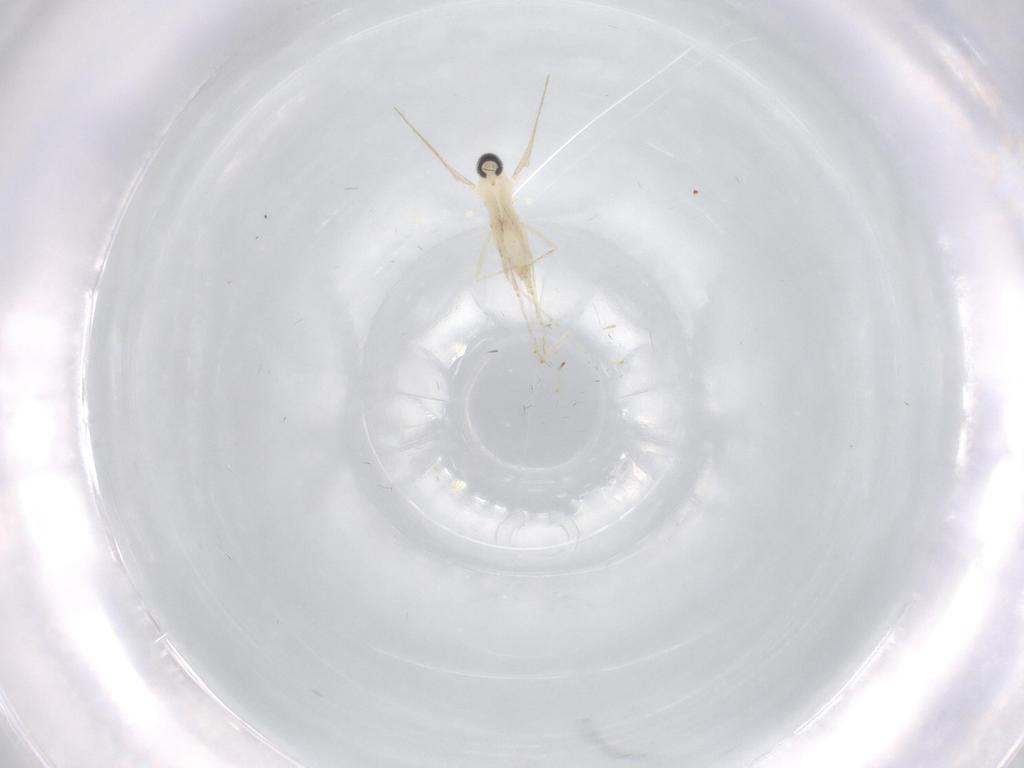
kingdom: Animalia
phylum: Arthropoda
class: Insecta
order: Diptera
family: Cecidomyiidae
